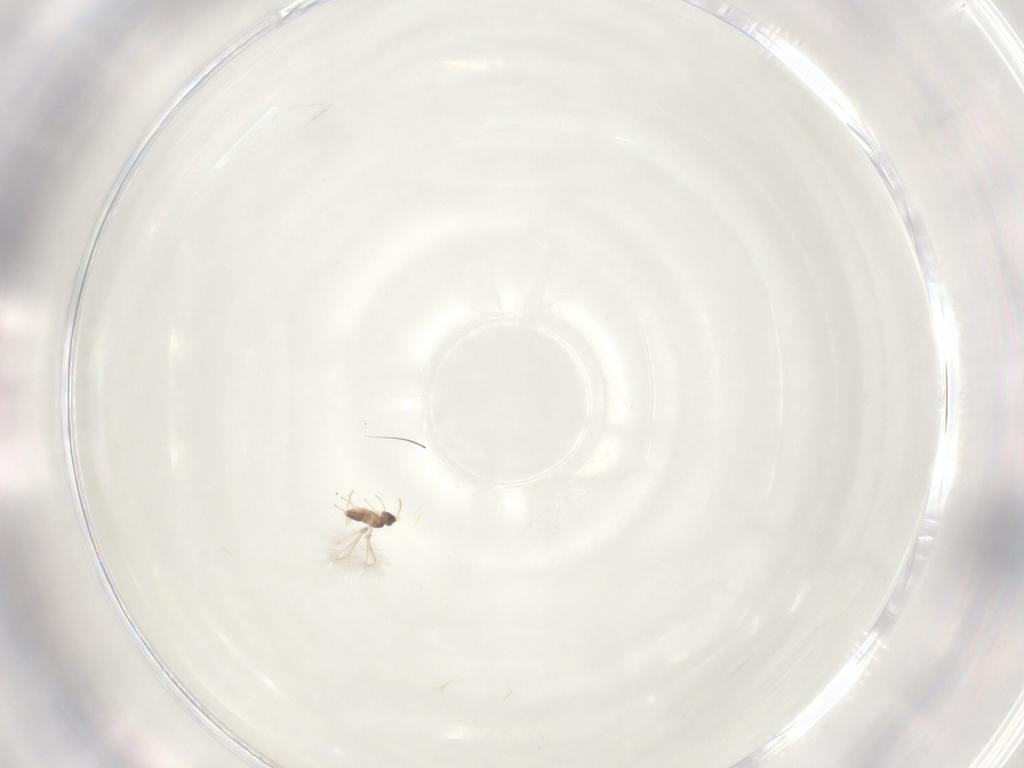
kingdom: Animalia
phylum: Arthropoda
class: Insecta
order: Hymenoptera
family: Mymaridae
